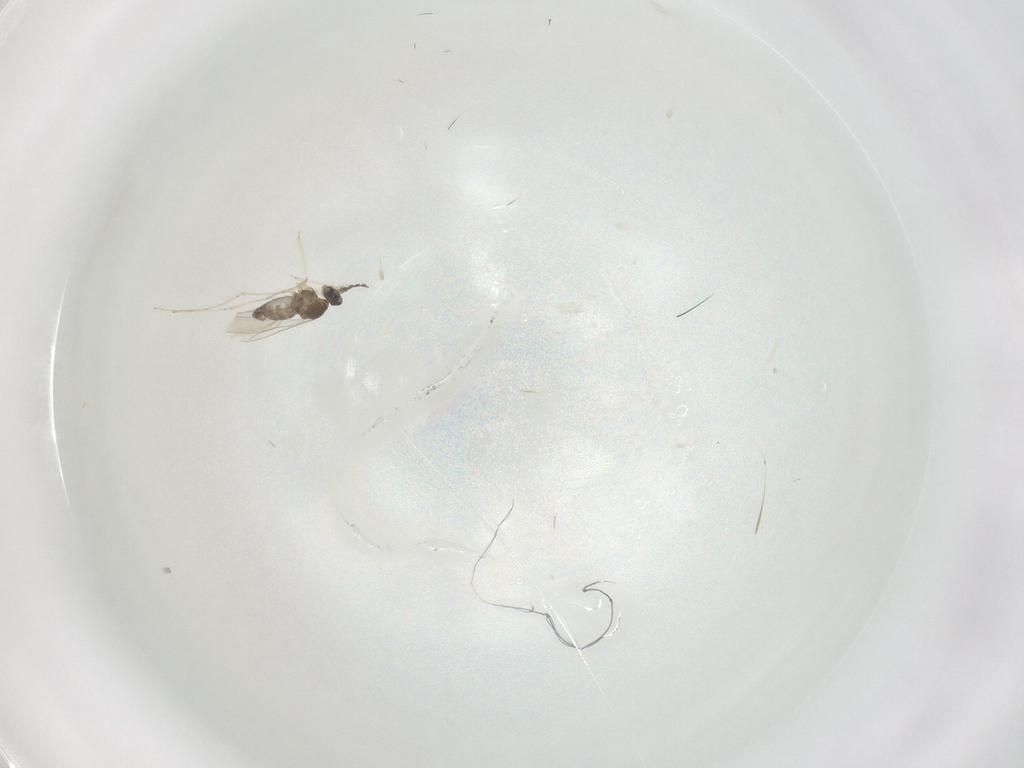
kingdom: Animalia
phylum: Arthropoda
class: Insecta
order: Diptera
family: Cecidomyiidae
